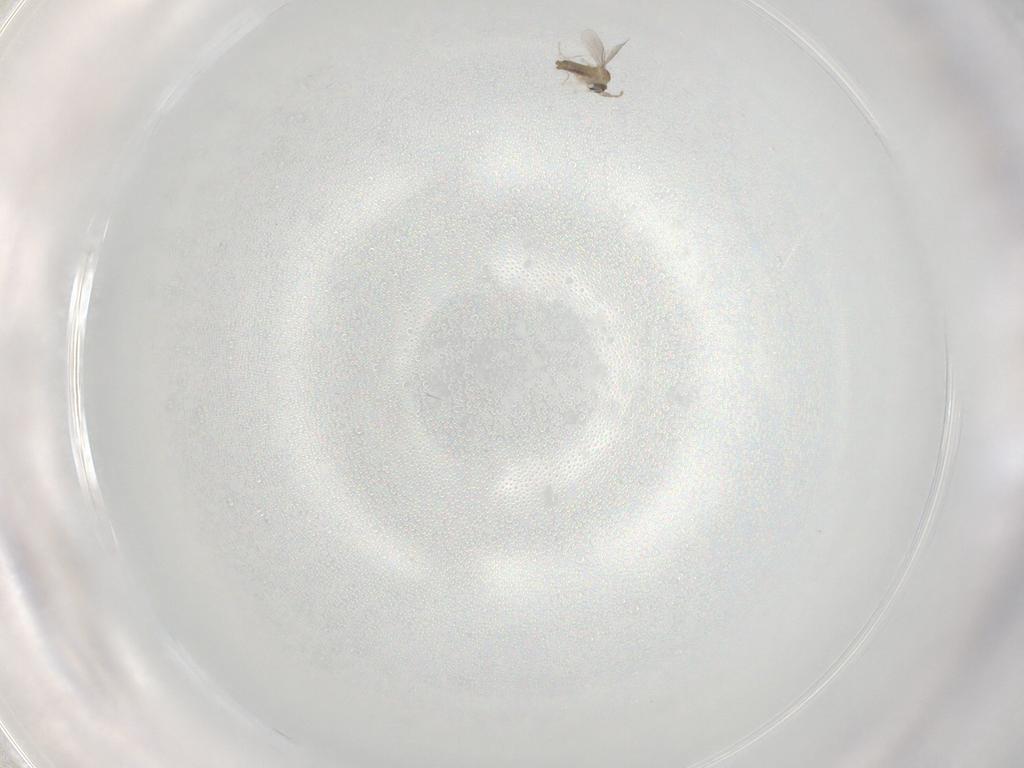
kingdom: Animalia
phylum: Arthropoda
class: Insecta
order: Diptera
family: Cecidomyiidae
